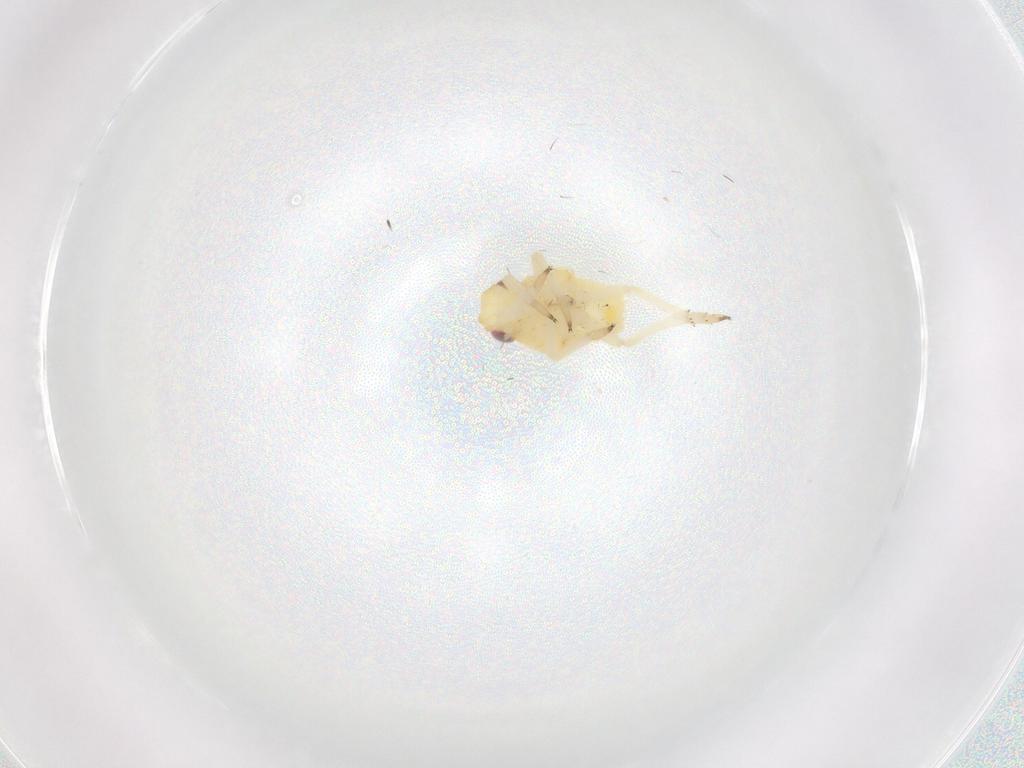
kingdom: Animalia
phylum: Arthropoda
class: Insecta
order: Hemiptera
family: Caliscelidae
